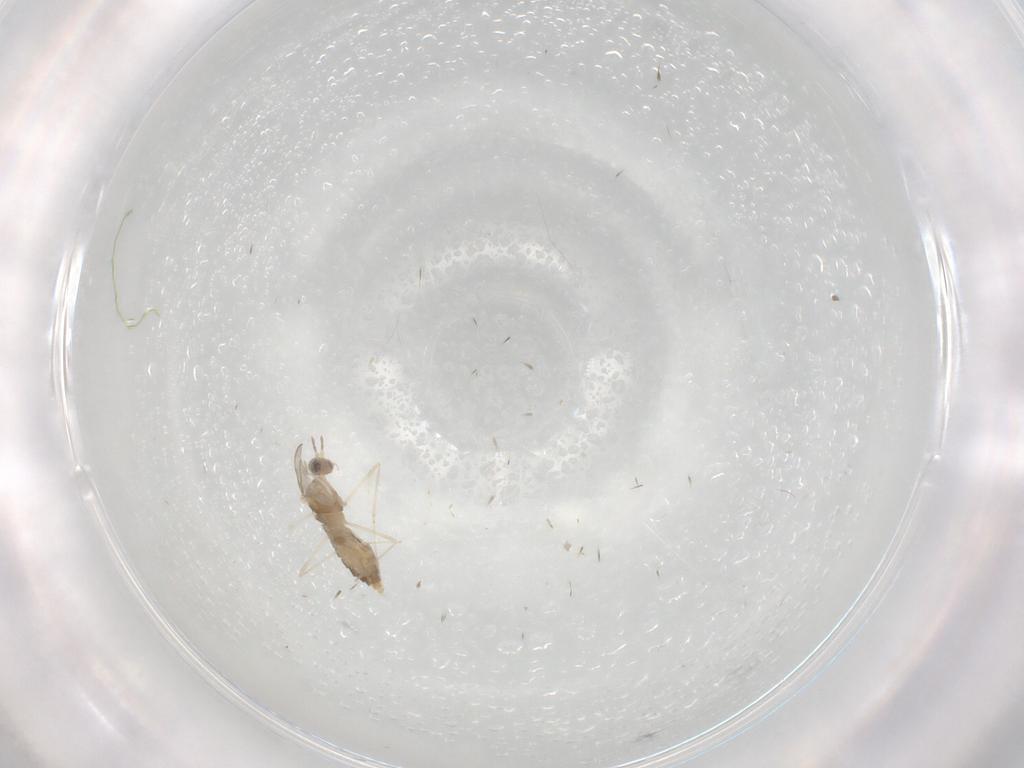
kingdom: Animalia
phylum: Arthropoda
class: Insecta
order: Diptera
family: Cecidomyiidae
